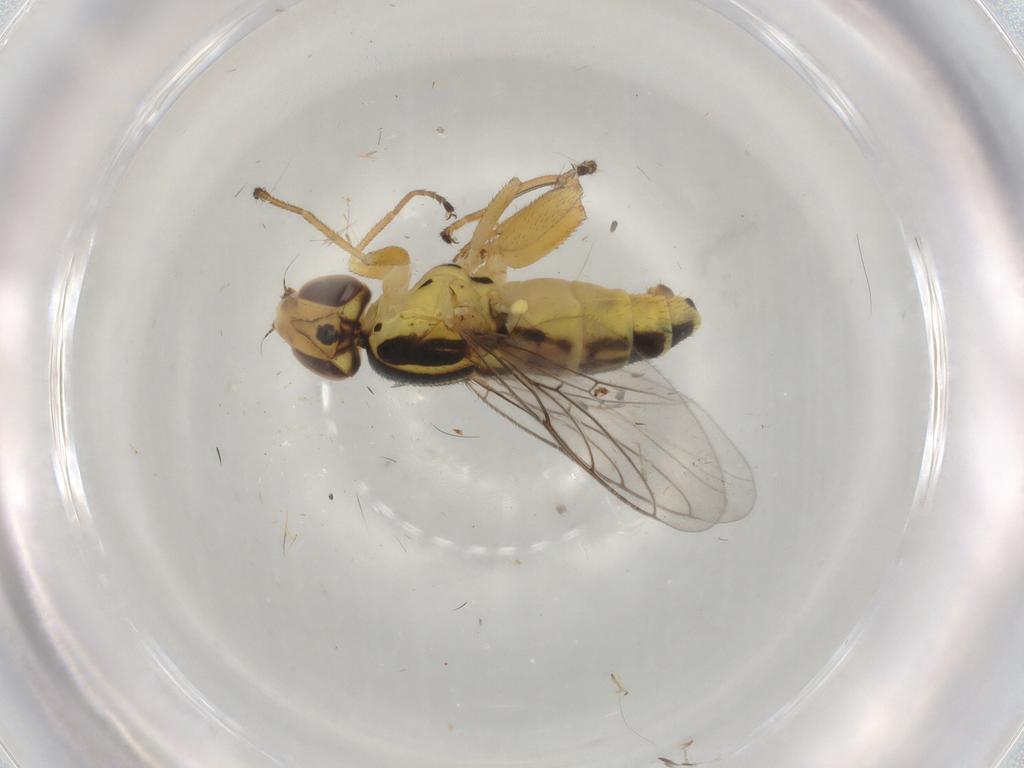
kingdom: Animalia
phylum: Arthropoda
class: Insecta
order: Diptera
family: Chloropidae
